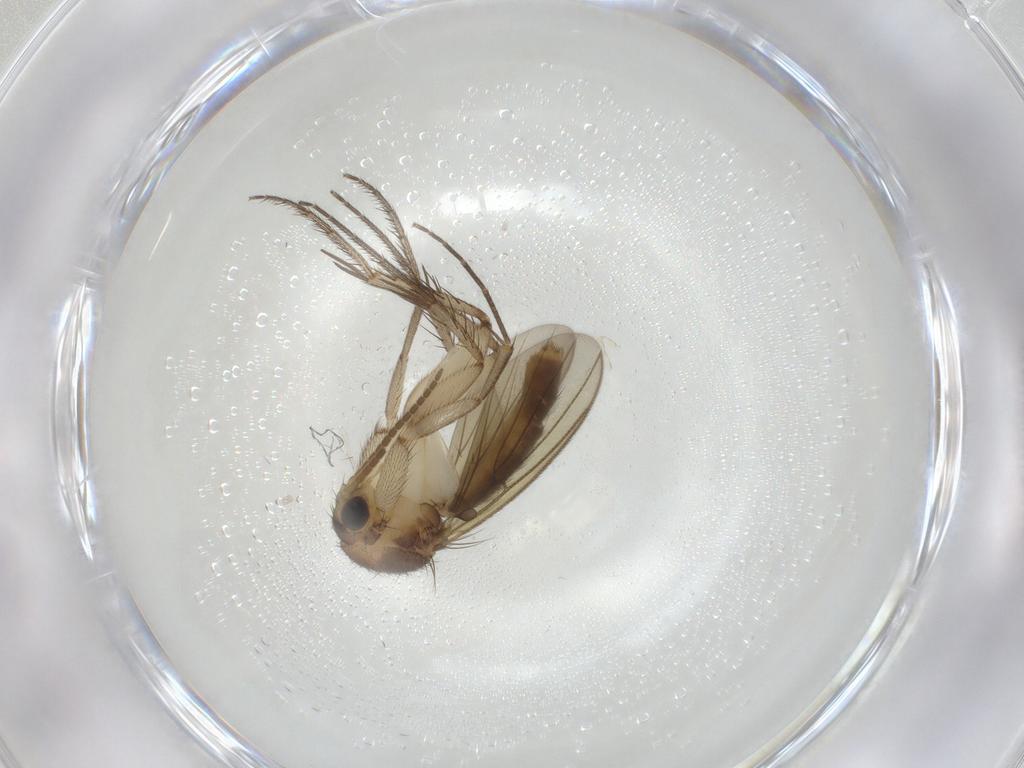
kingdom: Animalia
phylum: Arthropoda
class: Insecta
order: Diptera
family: Mycetophilidae
